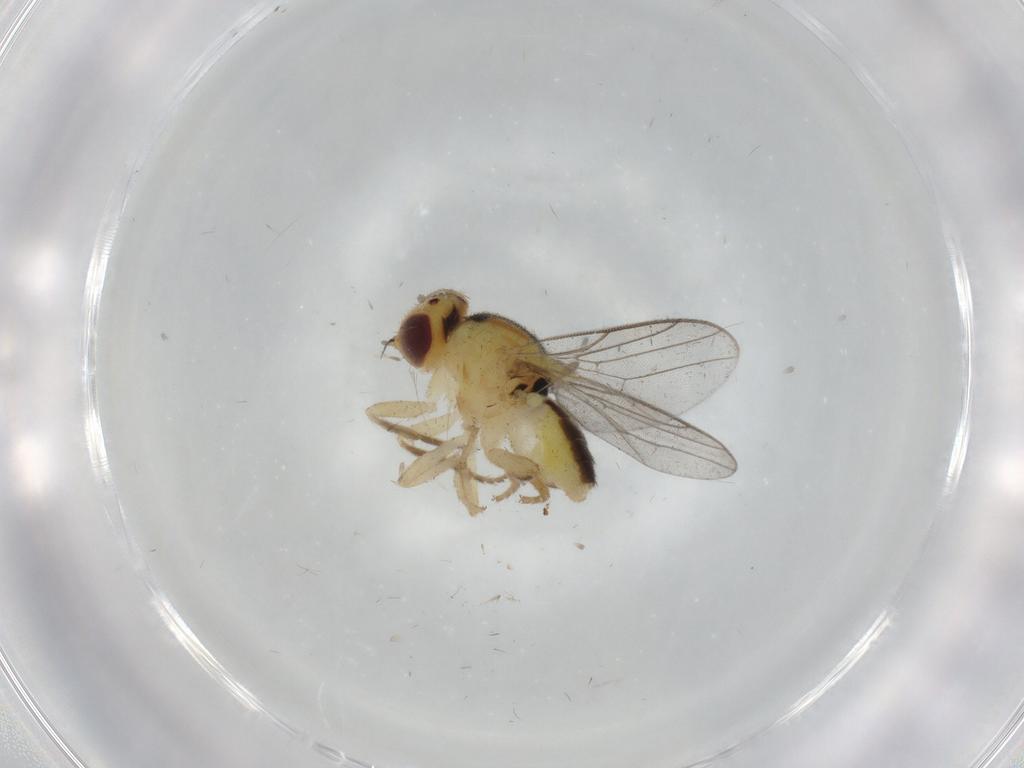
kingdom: Animalia
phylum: Arthropoda
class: Insecta
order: Diptera
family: Chloropidae
